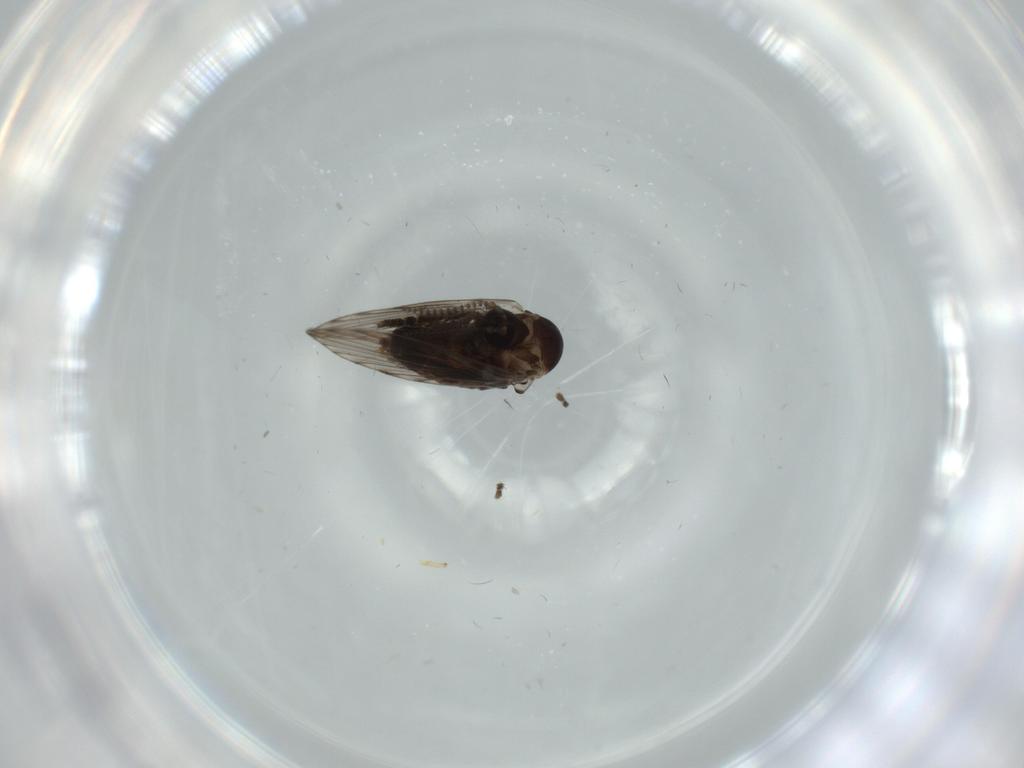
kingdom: Animalia
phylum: Arthropoda
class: Insecta
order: Diptera
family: Psychodidae
